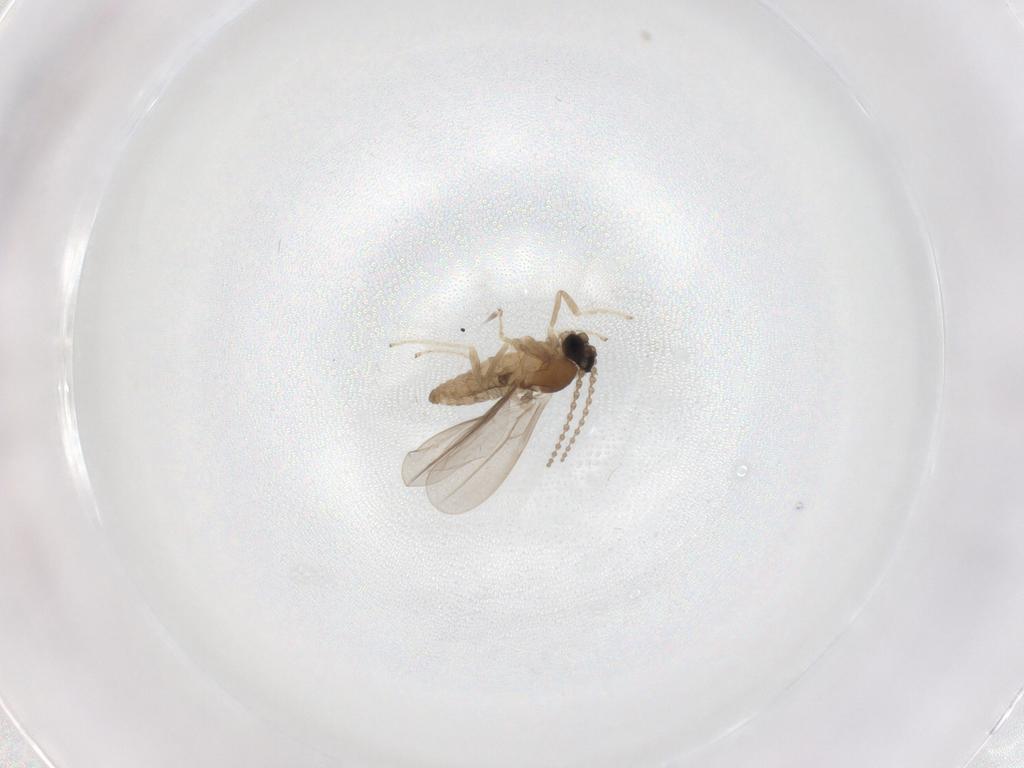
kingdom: Animalia
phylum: Arthropoda
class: Insecta
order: Diptera
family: Cecidomyiidae
